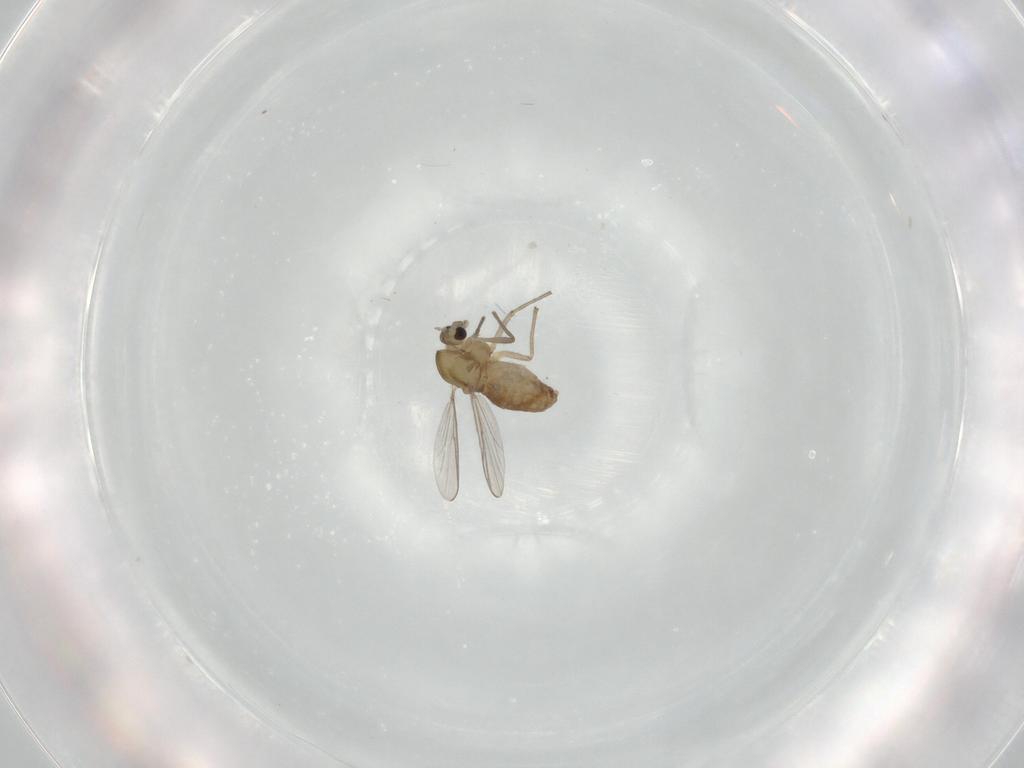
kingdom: Animalia
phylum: Arthropoda
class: Insecta
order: Diptera
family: Chironomidae
